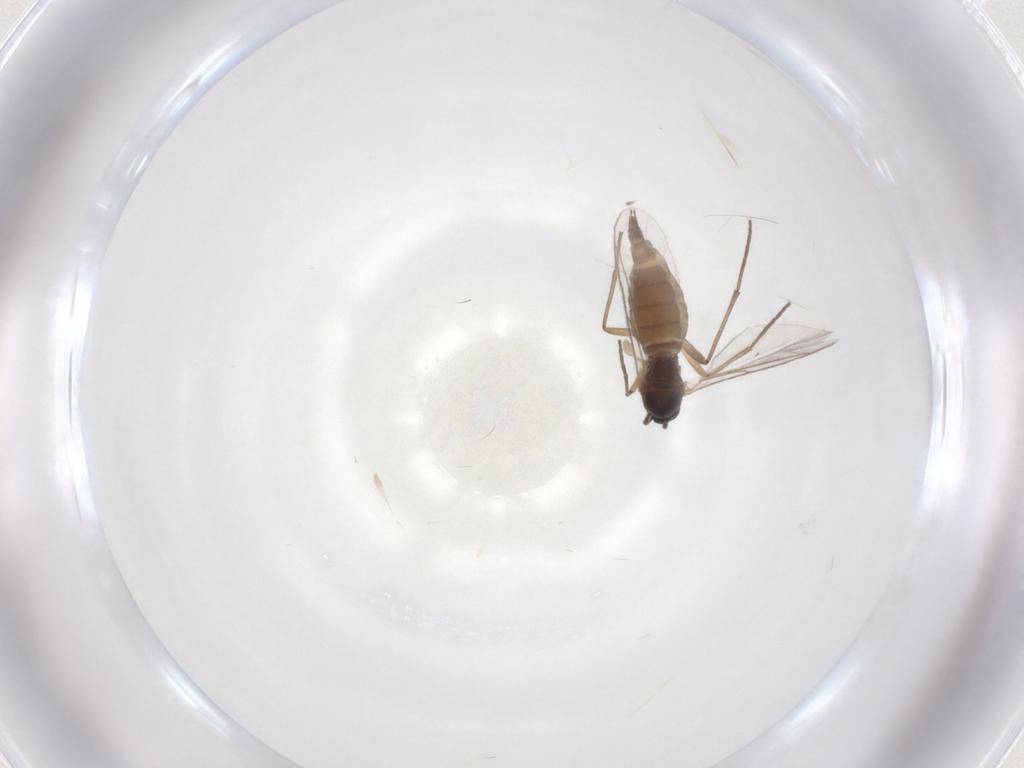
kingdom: Animalia
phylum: Arthropoda
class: Insecta
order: Diptera
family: Sciaridae
